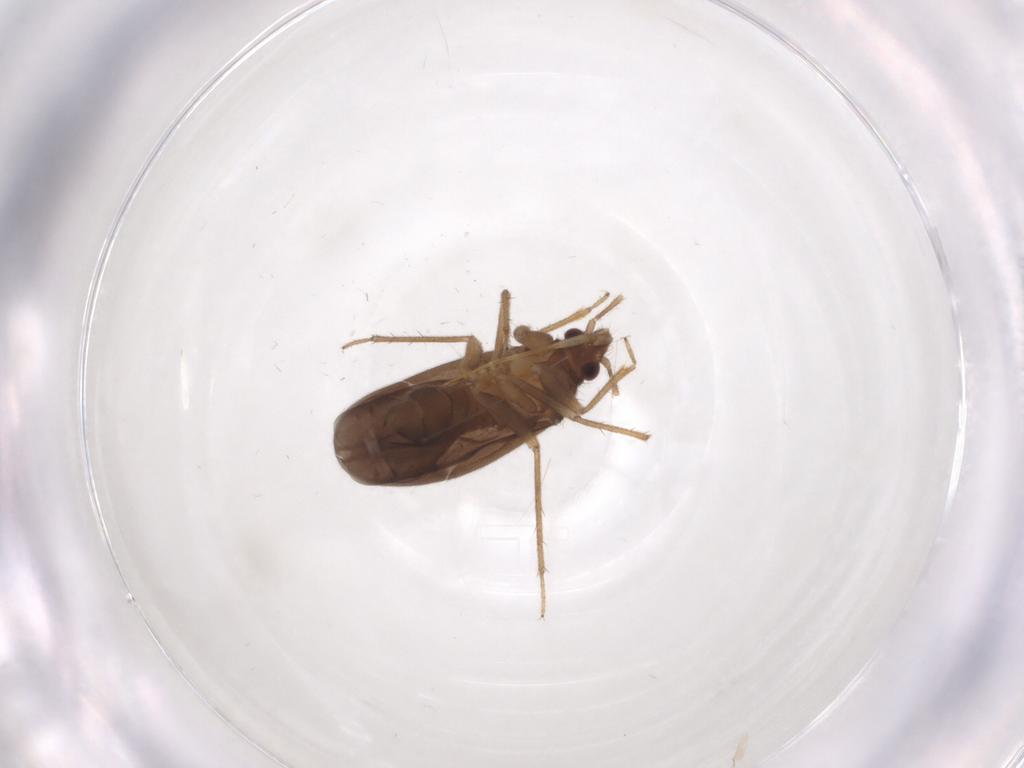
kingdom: Animalia
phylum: Arthropoda
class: Insecta
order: Hemiptera
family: Ceratocombidae
